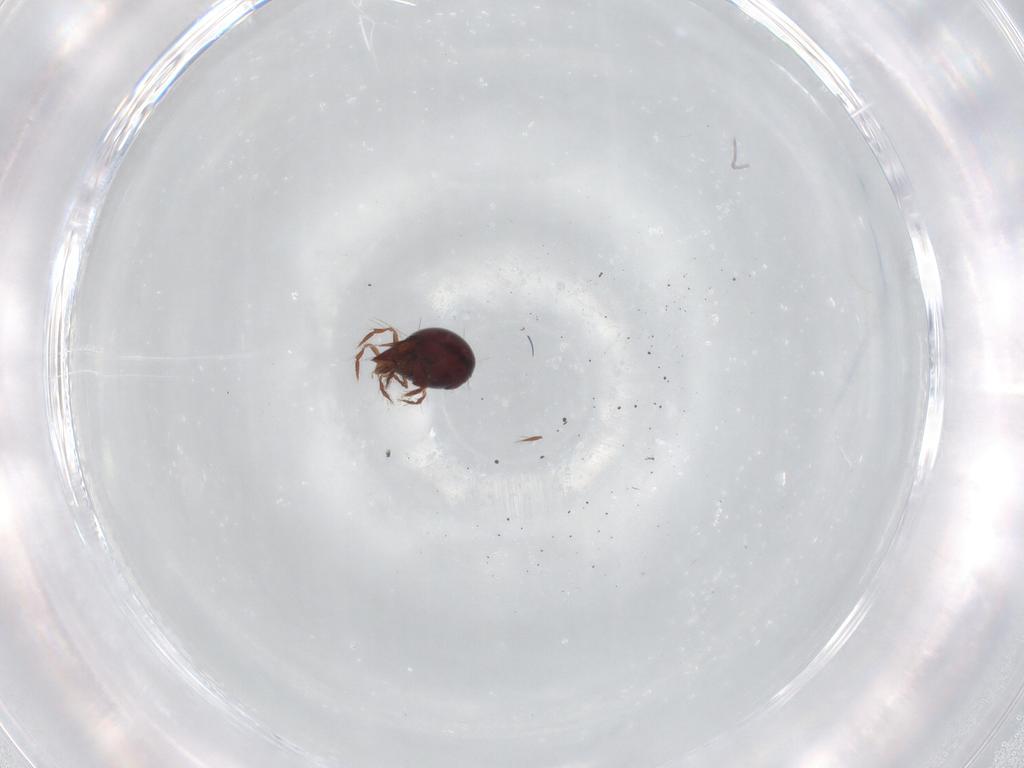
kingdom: Animalia
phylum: Arthropoda
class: Arachnida
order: Sarcoptiformes
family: Ceratoppiidae
